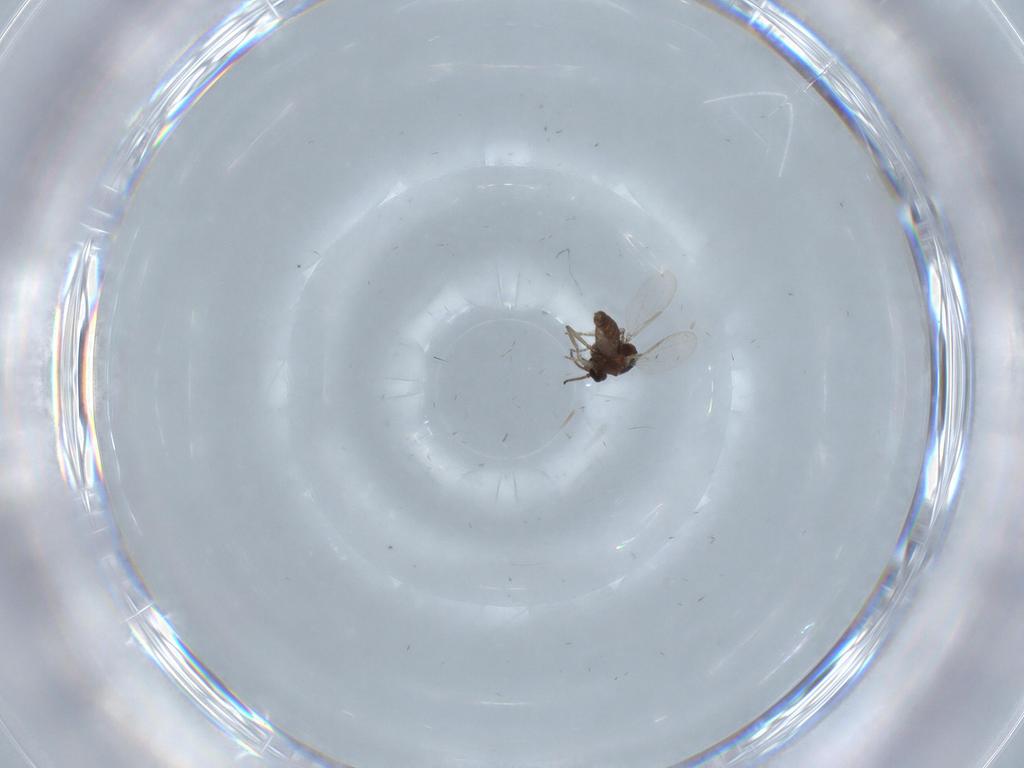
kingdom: Animalia
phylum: Arthropoda
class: Insecta
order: Diptera
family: Ceratopogonidae
